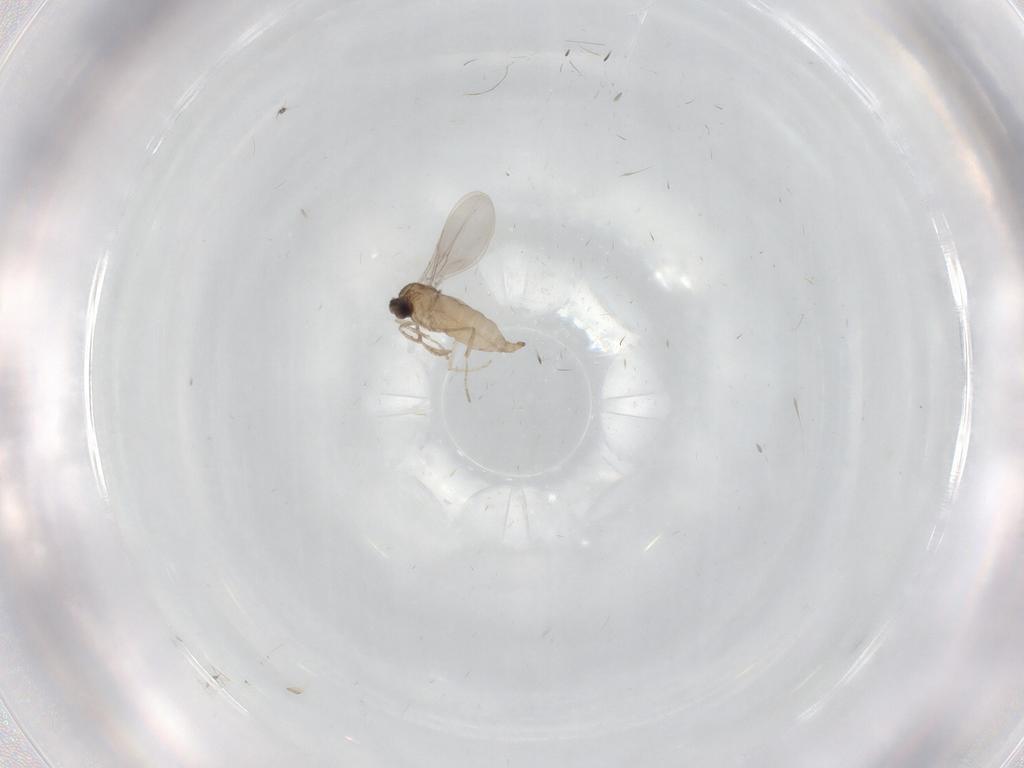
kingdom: Animalia
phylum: Arthropoda
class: Insecta
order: Diptera
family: Cecidomyiidae
